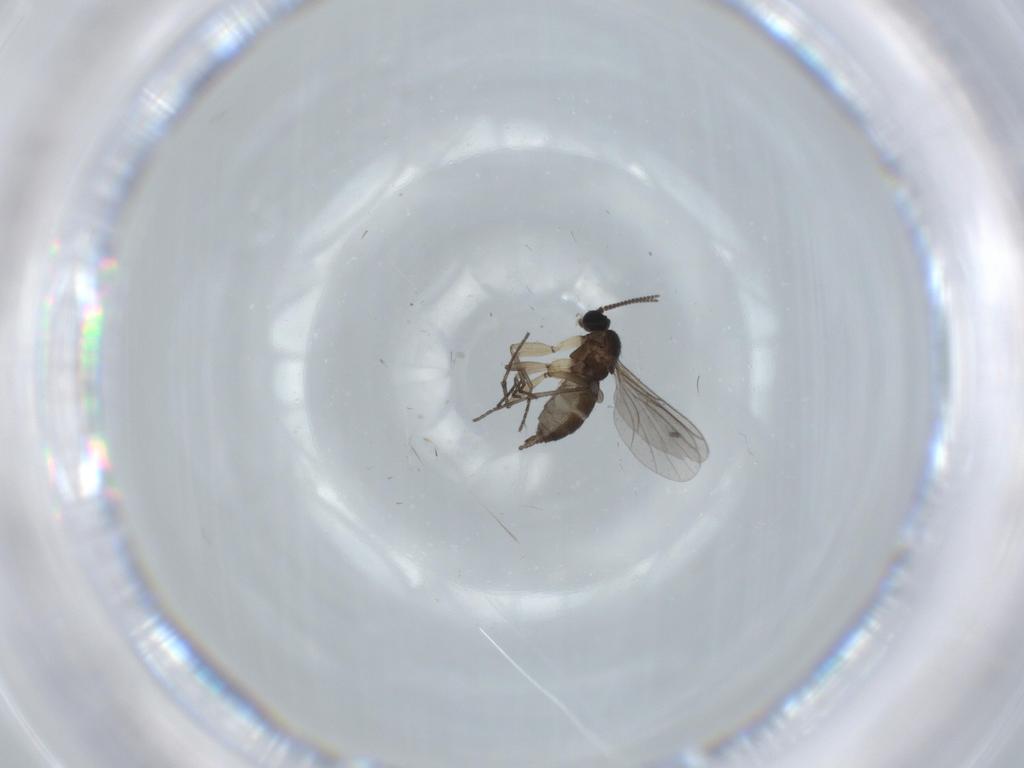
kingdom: Animalia
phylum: Arthropoda
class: Insecta
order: Diptera
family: Sciaridae
